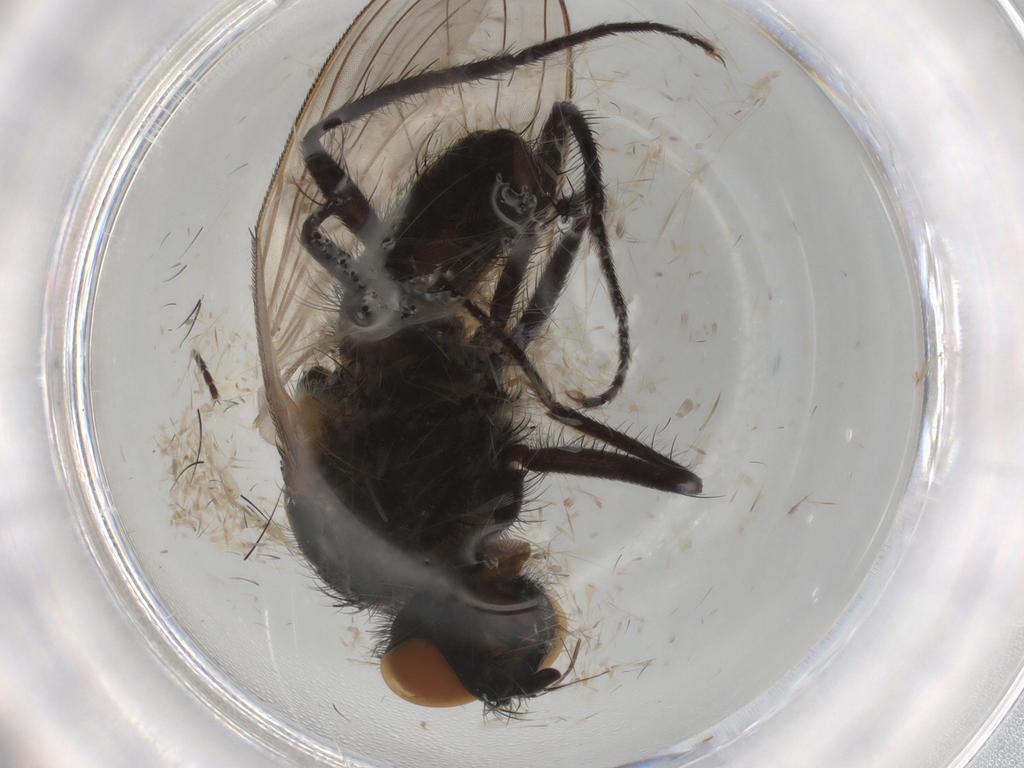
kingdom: Animalia
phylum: Arthropoda
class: Insecta
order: Diptera
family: Anthomyiidae
